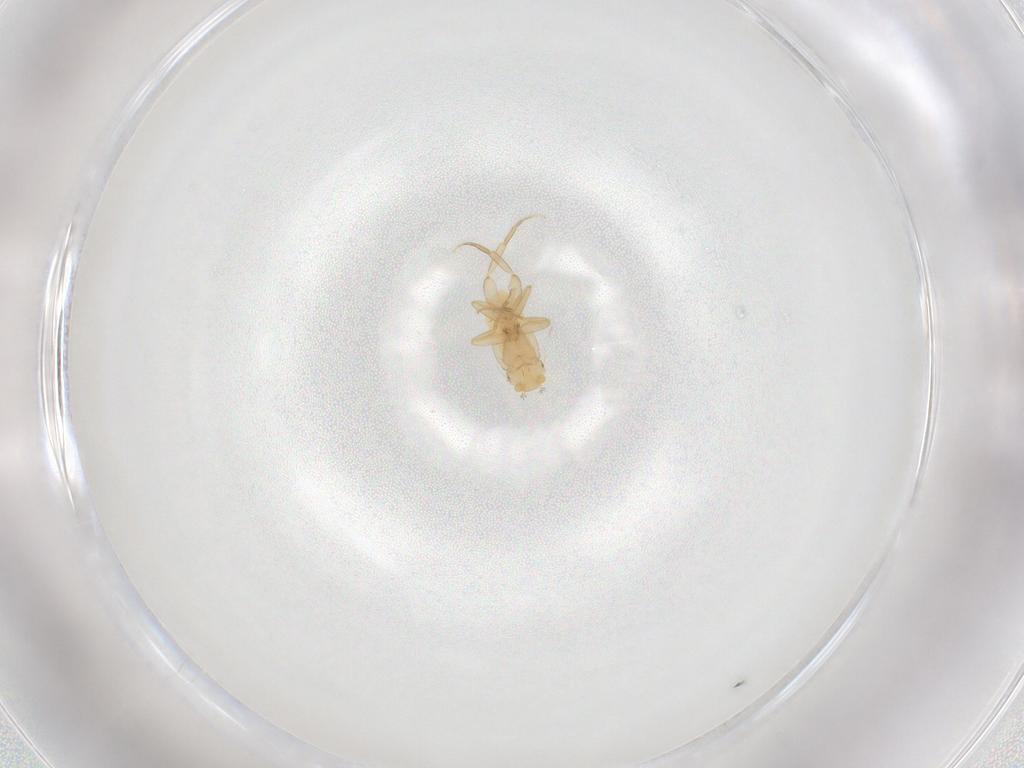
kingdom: Animalia
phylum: Arthropoda
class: Insecta
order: Diptera
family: Phoridae
